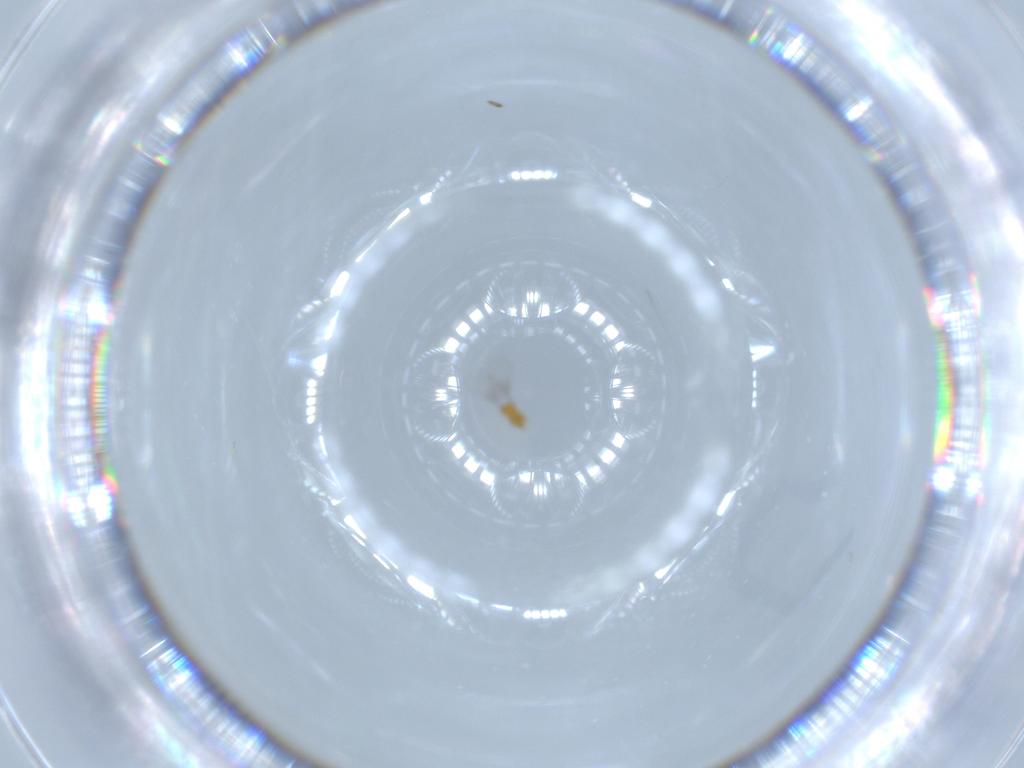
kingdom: Animalia
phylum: Arthropoda
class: Insecta
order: Hymenoptera
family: Trichogrammatidae
